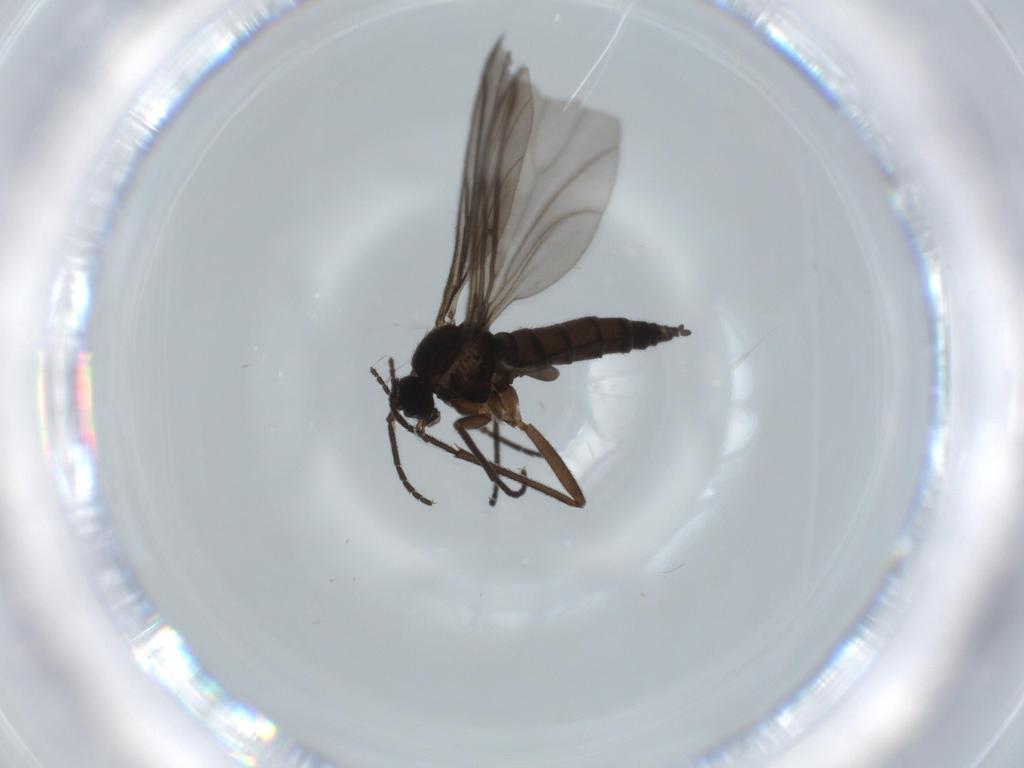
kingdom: Animalia
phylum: Arthropoda
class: Insecta
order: Diptera
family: Sciaridae
